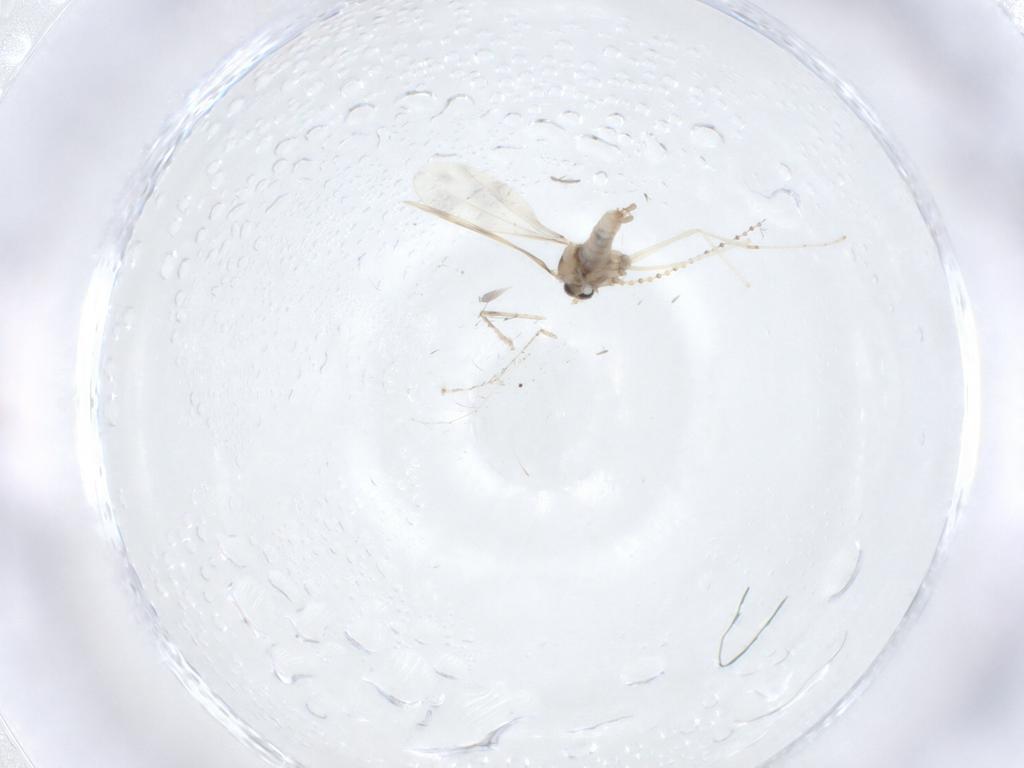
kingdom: Animalia
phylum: Arthropoda
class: Insecta
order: Diptera
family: Cecidomyiidae
